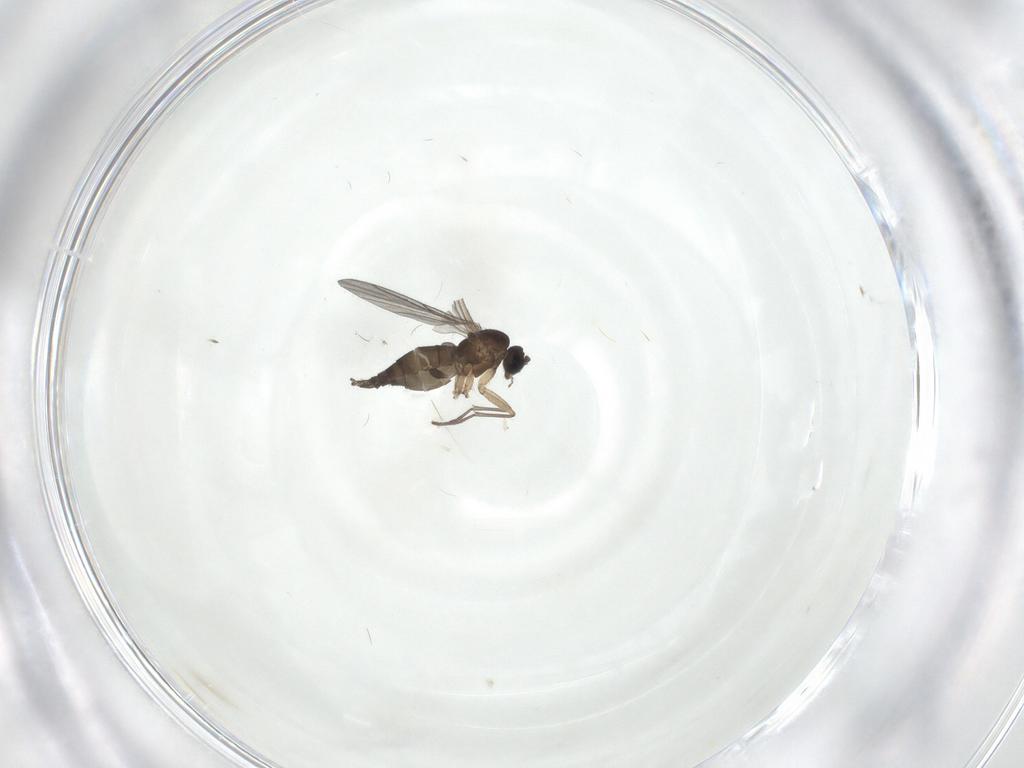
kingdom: Animalia
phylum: Arthropoda
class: Insecta
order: Diptera
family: Sciaridae
